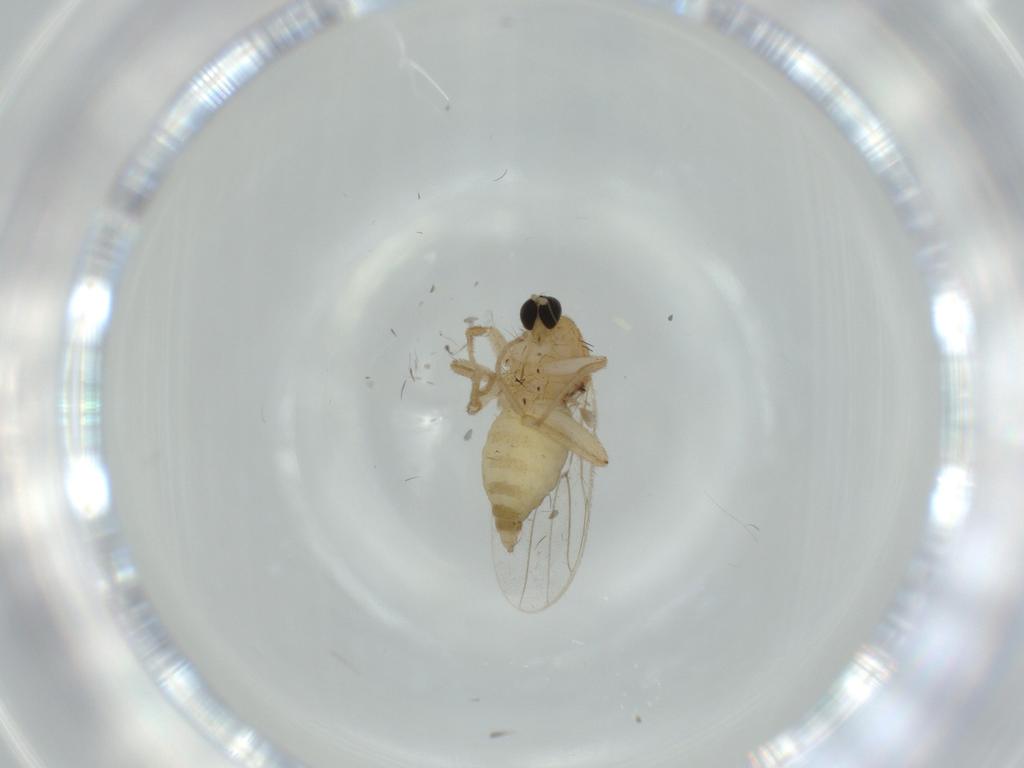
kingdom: Animalia
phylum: Arthropoda
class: Insecta
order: Diptera
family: Hybotidae
